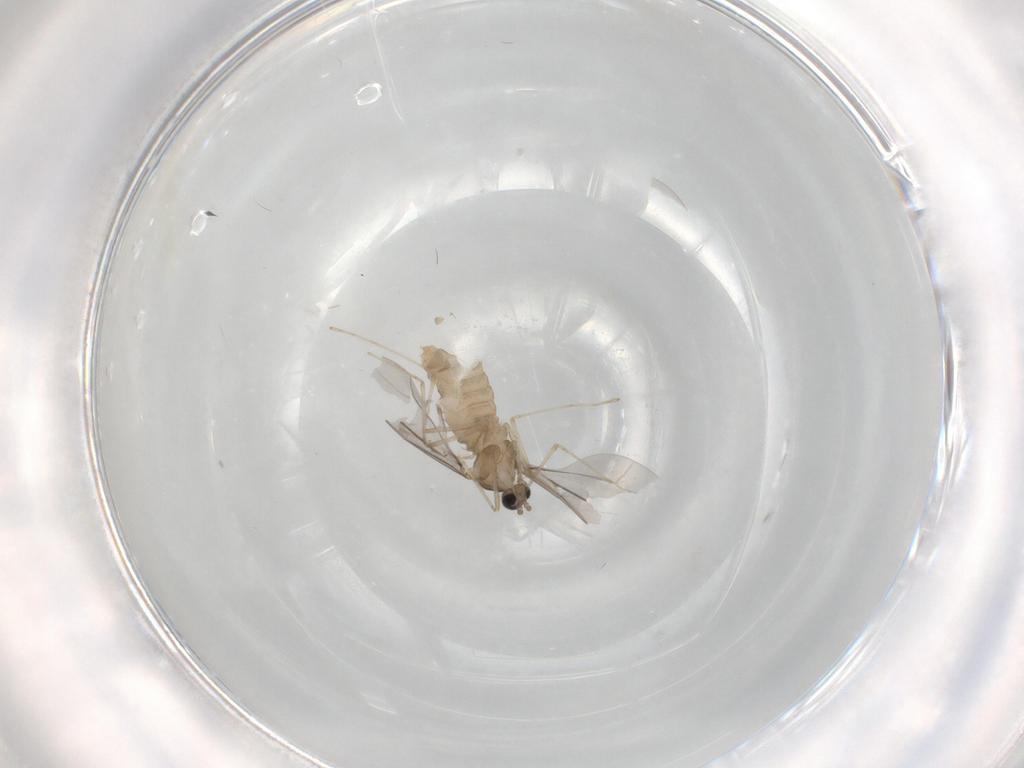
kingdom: Animalia
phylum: Arthropoda
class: Insecta
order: Diptera
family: Cecidomyiidae
